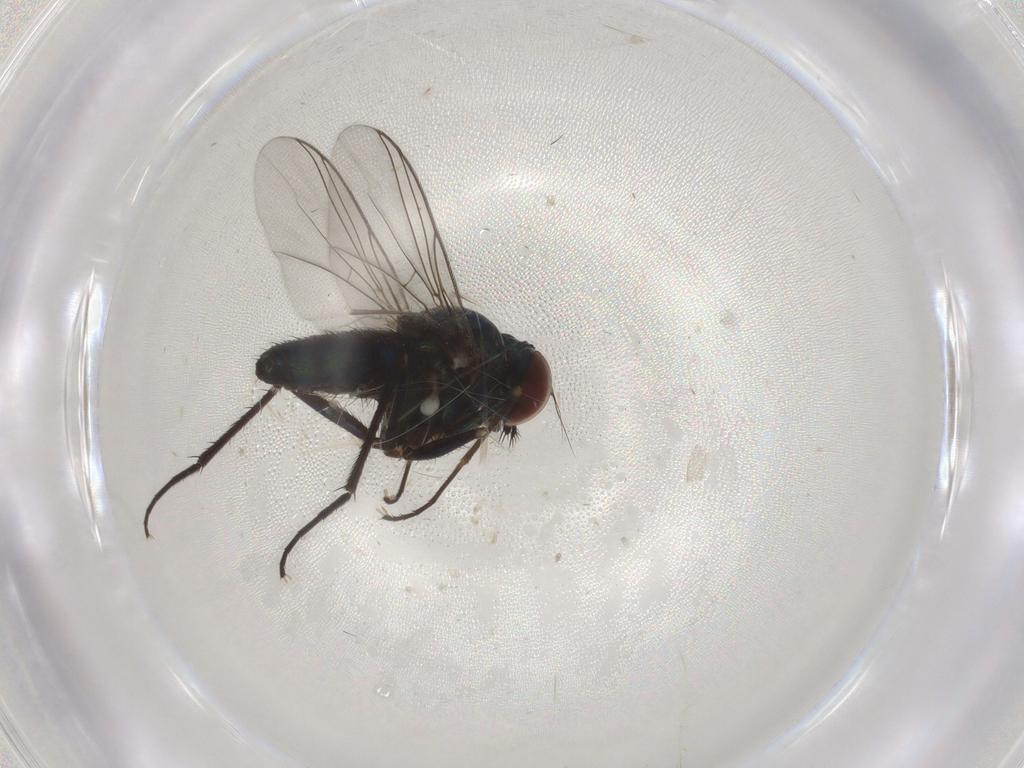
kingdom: Animalia
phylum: Arthropoda
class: Insecta
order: Diptera
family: Dolichopodidae
